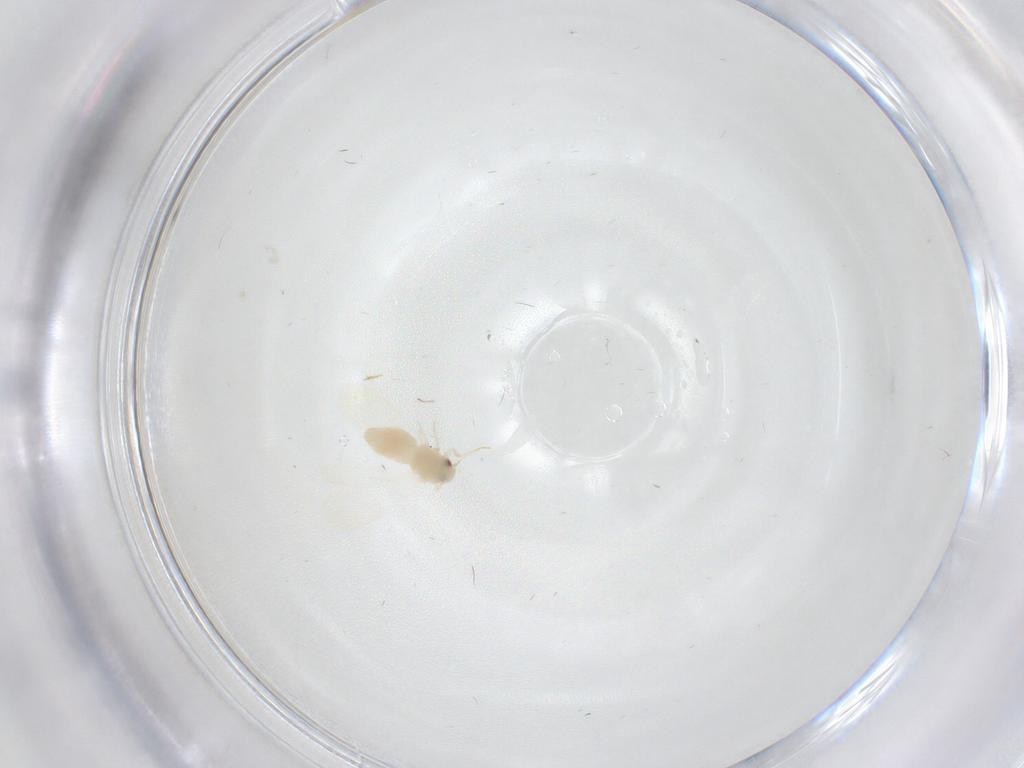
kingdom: Animalia
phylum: Arthropoda
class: Insecta
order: Hemiptera
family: Aleyrodidae
